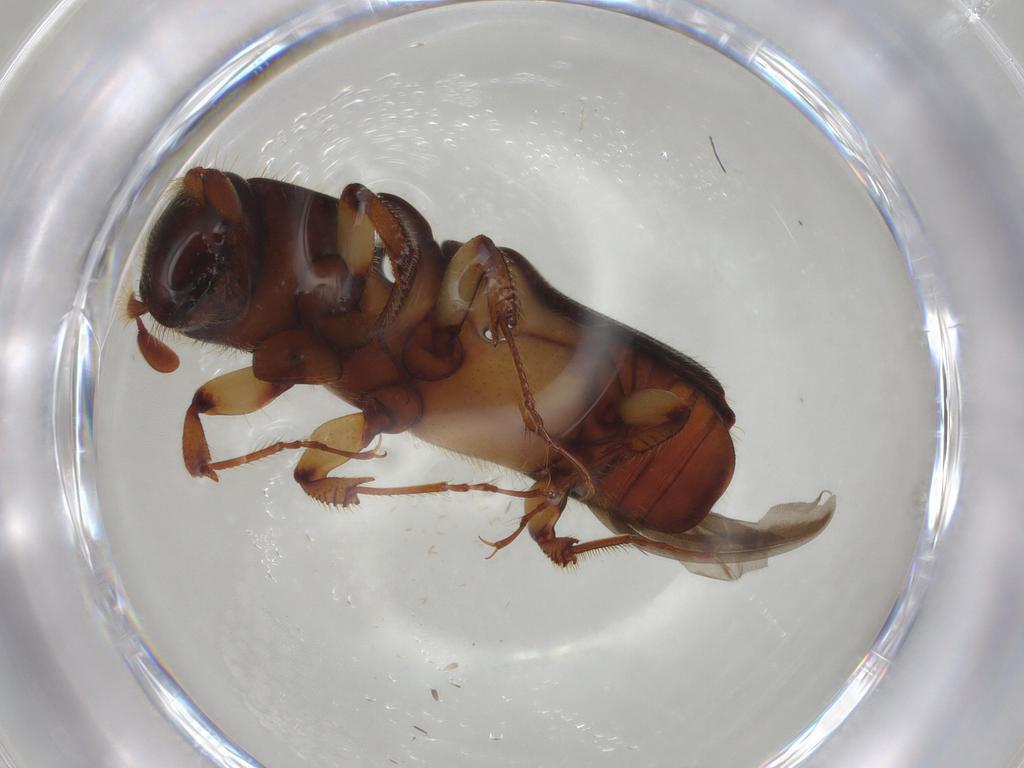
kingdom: Animalia
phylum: Arthropoda
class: Insecta
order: Coleoptera
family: Curculionidae
